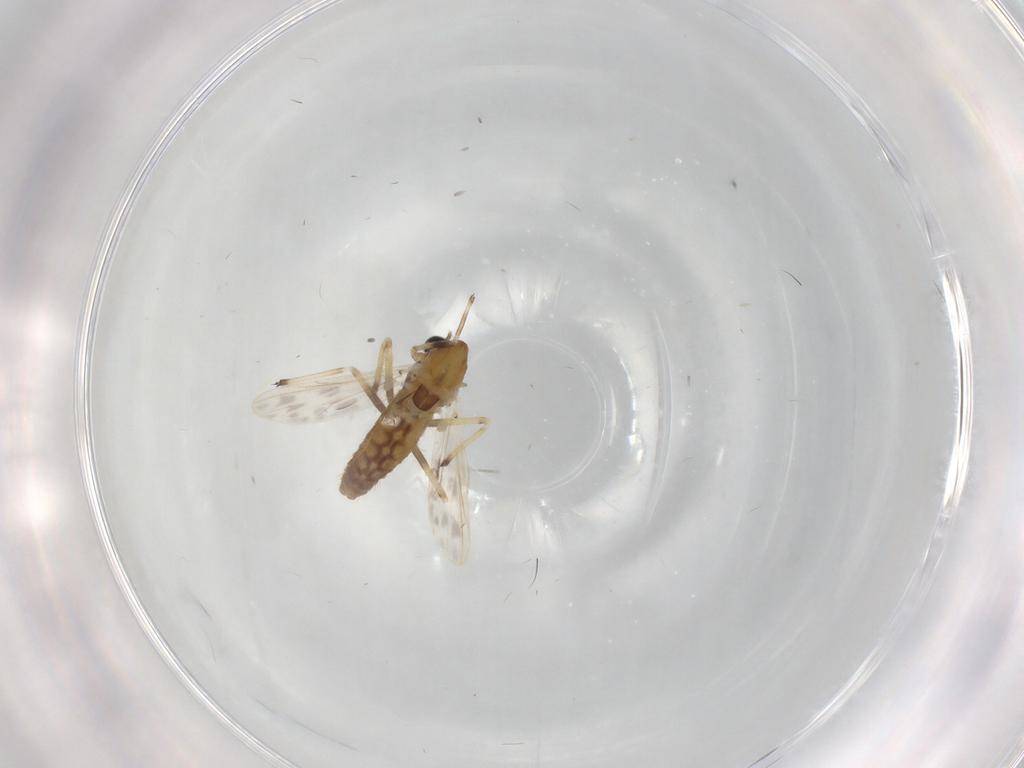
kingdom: Animalia
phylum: Arthropoda
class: Insecta
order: Diptera
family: Chironomidae
